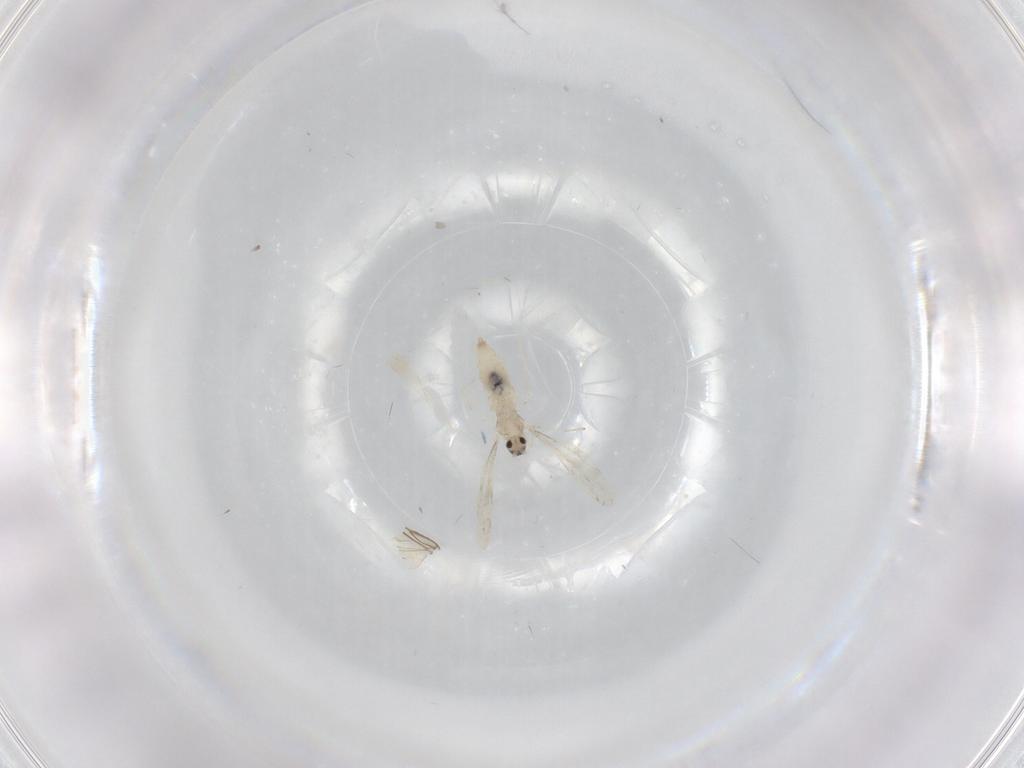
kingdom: Animalia
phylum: Arthropoda
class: Insecta
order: Diptera
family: Cecidomyiidae
